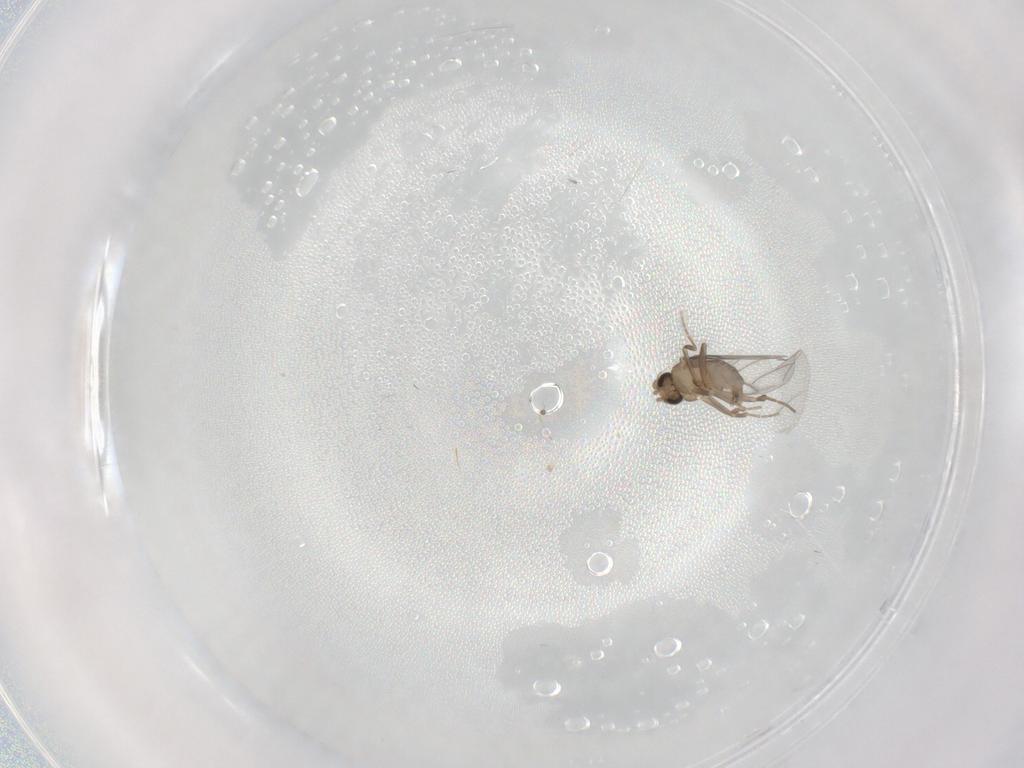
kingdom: Animalia
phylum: Arthropoda
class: Insecta
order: Diptera
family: Psychodidae
